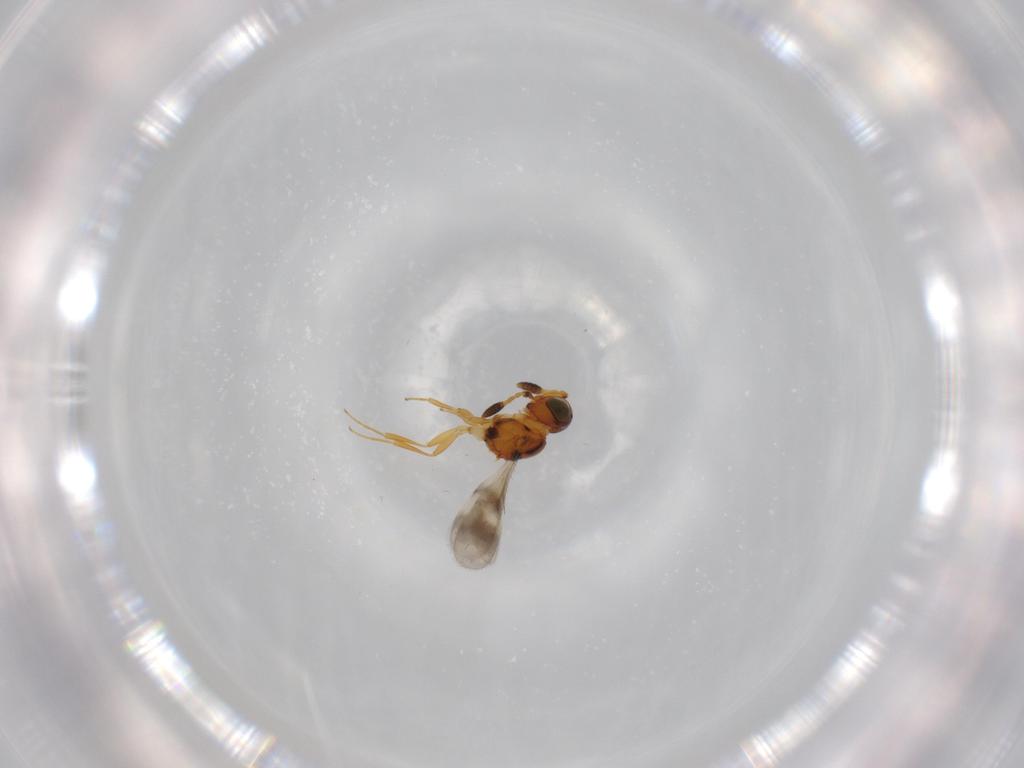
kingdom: Animalia
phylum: Arthropoda
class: Insecta
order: Hymenoptera
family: Scelionidae
